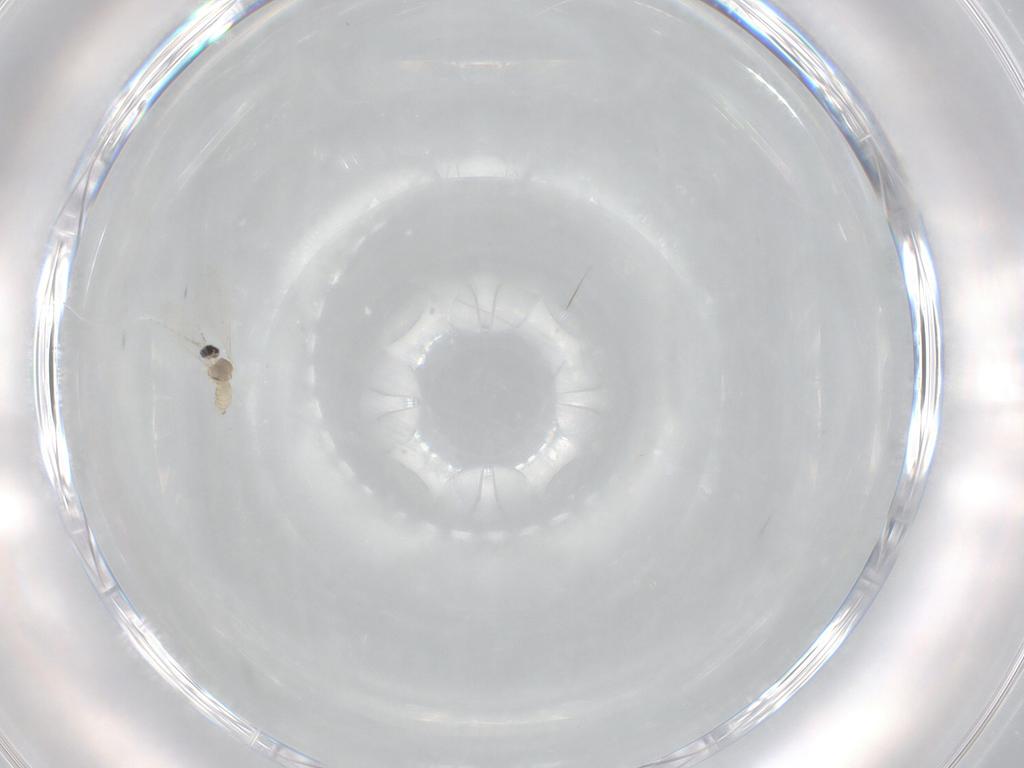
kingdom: Animalia
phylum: Arthropoda
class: Insecta
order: Diptera
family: Cecidomyiidae
